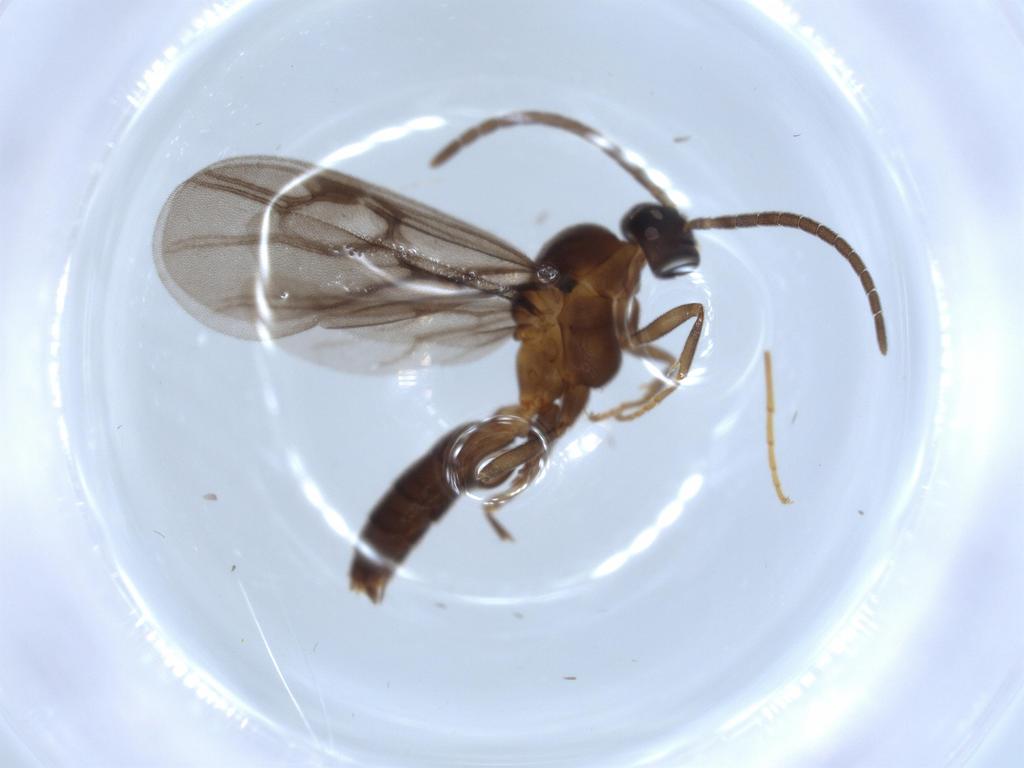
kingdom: Animalia
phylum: Arthropoda
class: Insecta
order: Hymenoptera
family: Formicidae
